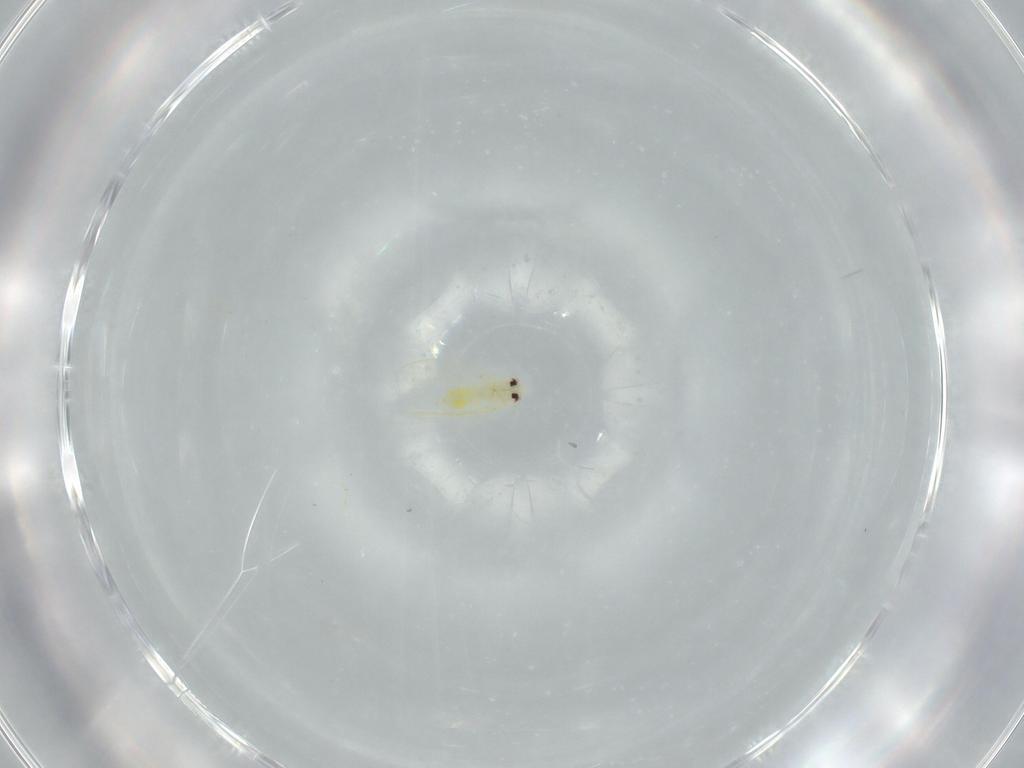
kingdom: Animalia
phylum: Arthropoda
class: Insecta
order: Hemiptera
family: Aleyrodidae
